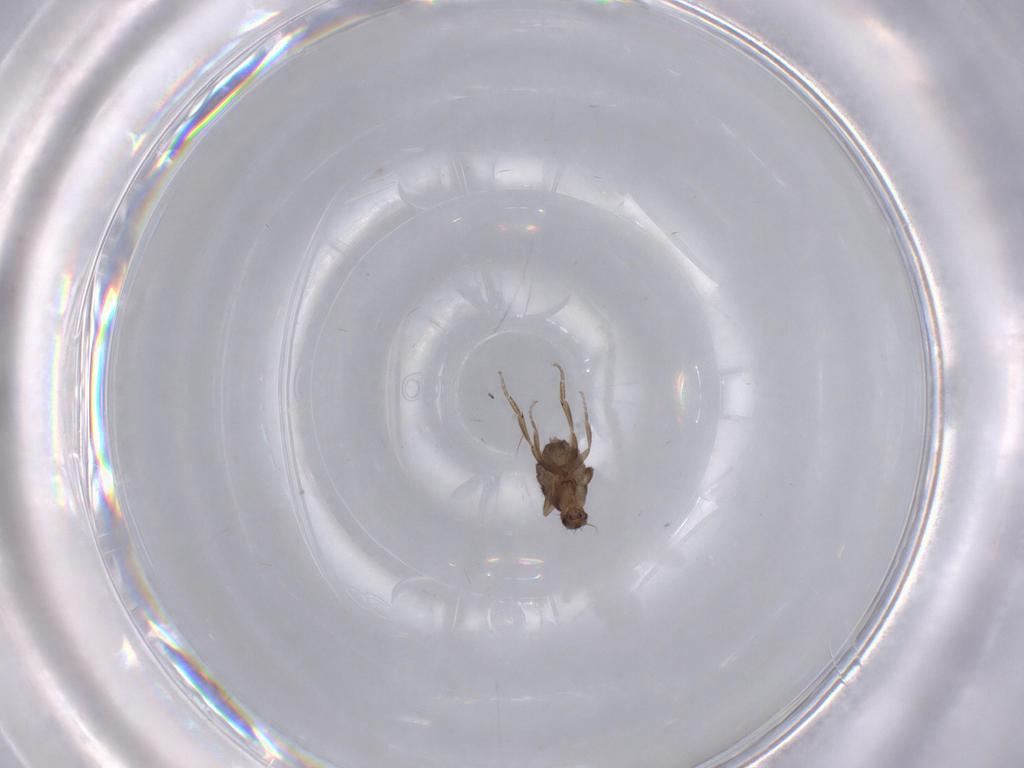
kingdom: Animalia
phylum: Arthropoda
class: Insecta
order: Diptera
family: Phoridae
